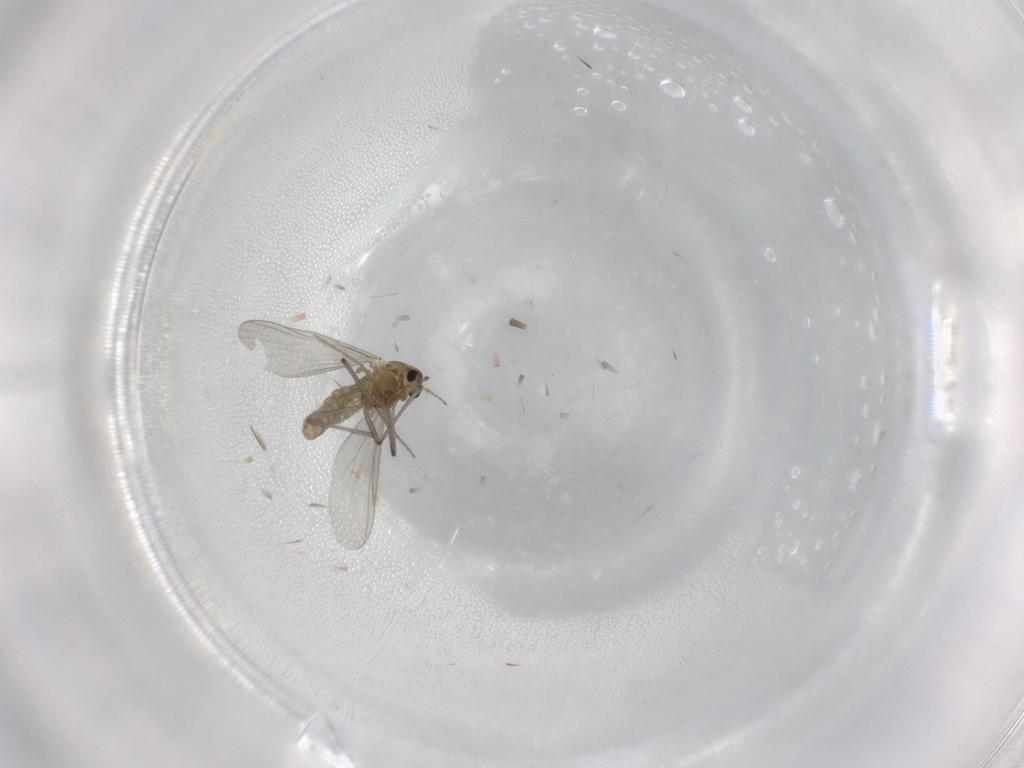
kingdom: Animalia
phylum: Arthropoda
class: Insecta
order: Diptera
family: Chironomidae
